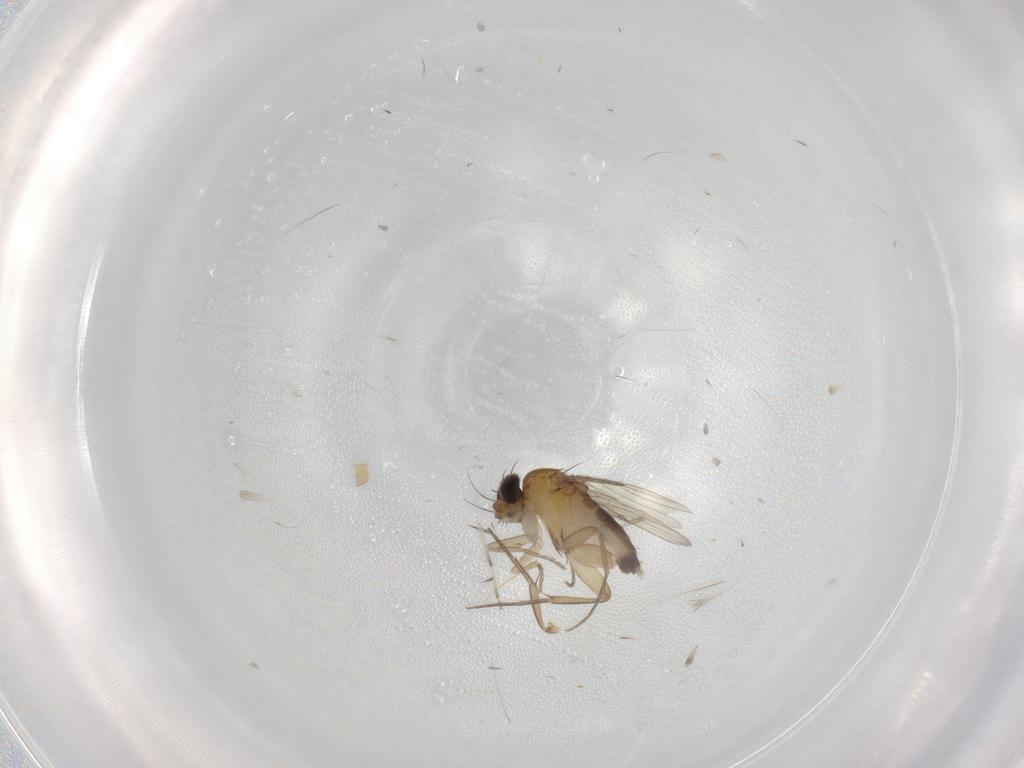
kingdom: Animalia
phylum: Arthropoda
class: Insecta
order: Diptera
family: Phoridae
